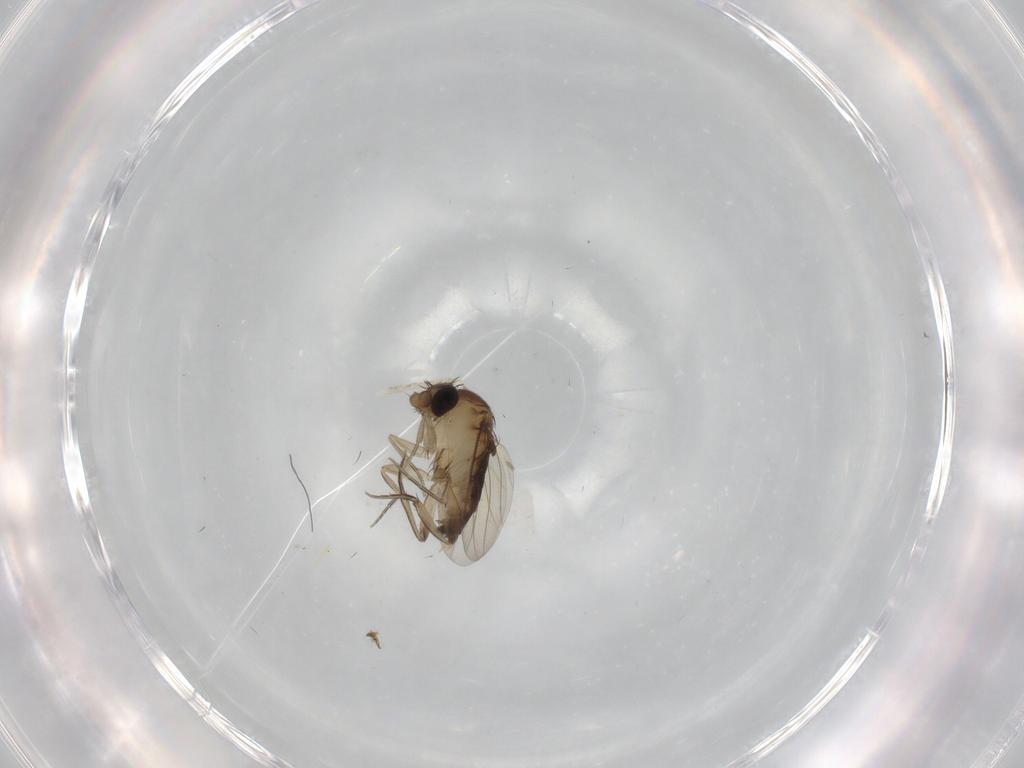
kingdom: Animalia
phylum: Arthropoda
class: Insecta
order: Diptera
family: Phoridae
